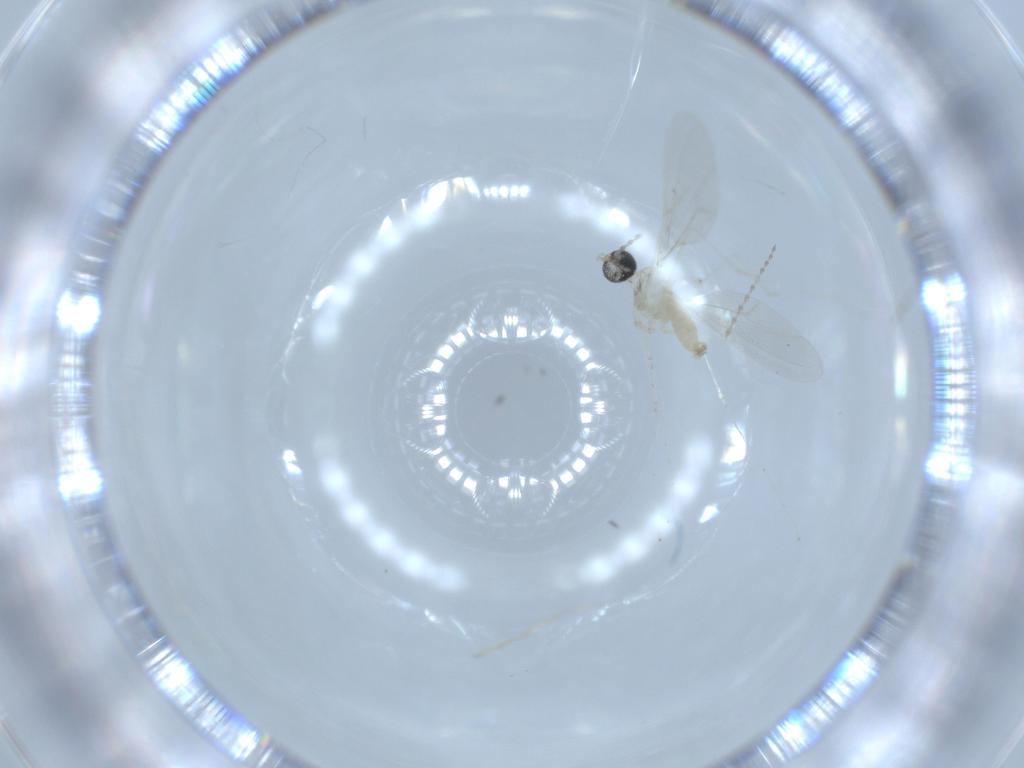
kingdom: Animalia
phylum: Arthropoda
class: Insecta
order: Diptera
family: Cecidomyiidae
